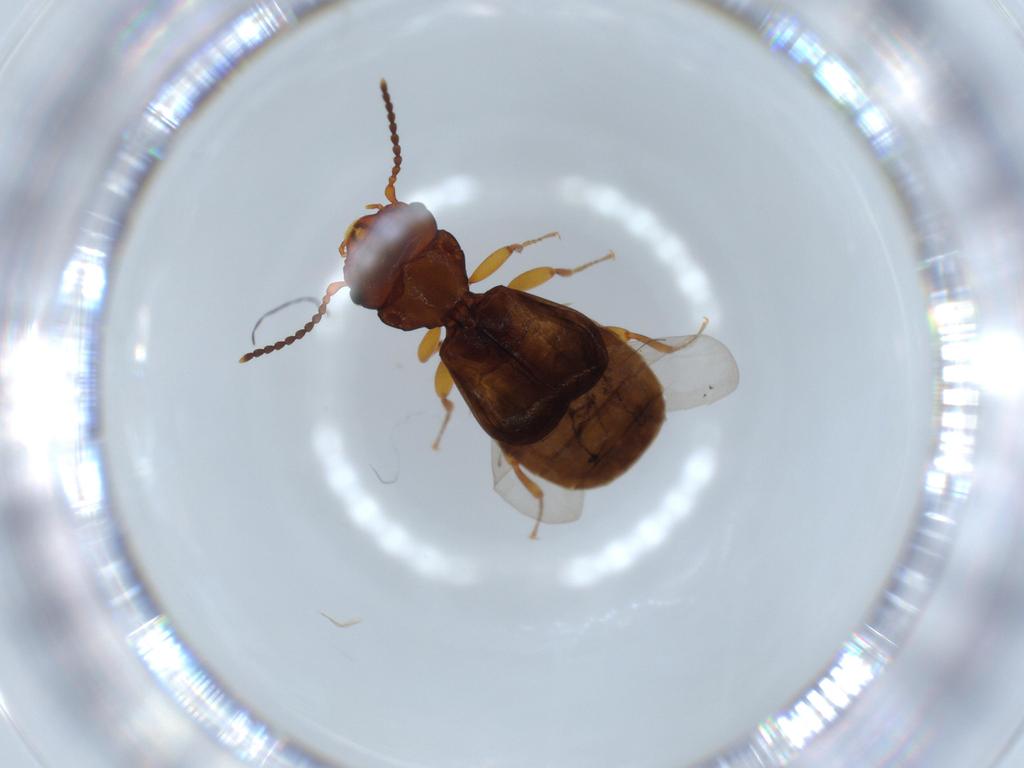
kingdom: Animalia
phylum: Arthropoda
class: Insecta
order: Coleoptera
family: Salpingidae
